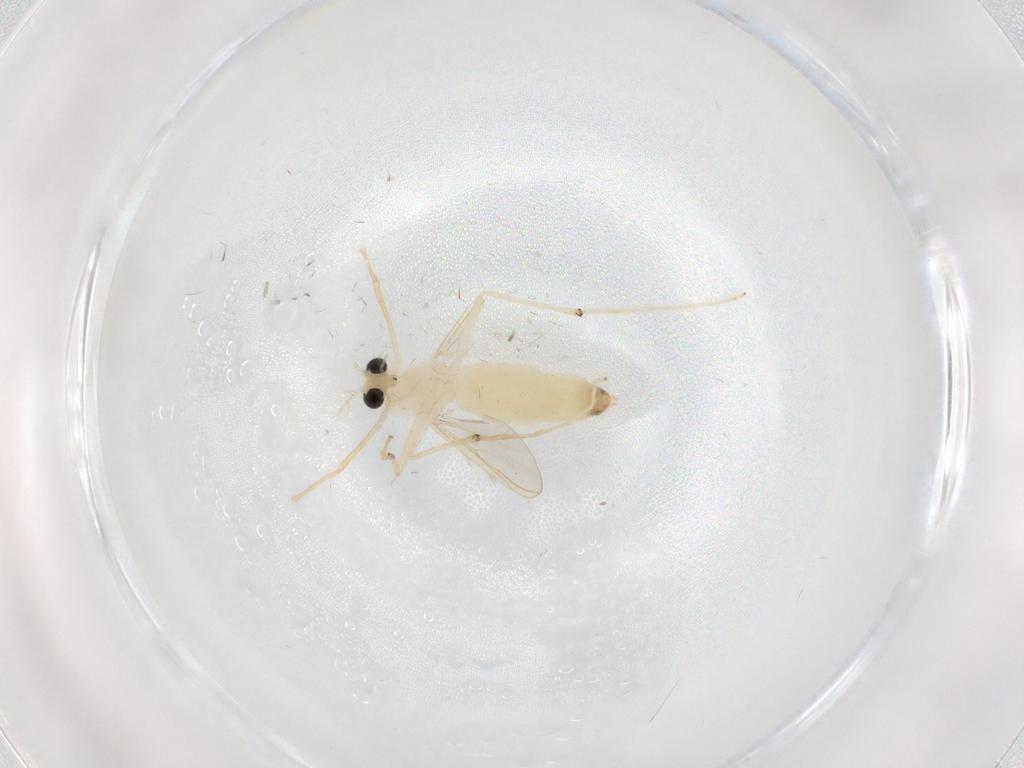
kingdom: Animalia
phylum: Arthropoda
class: Insecta
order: Diptera
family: Chironomidae
